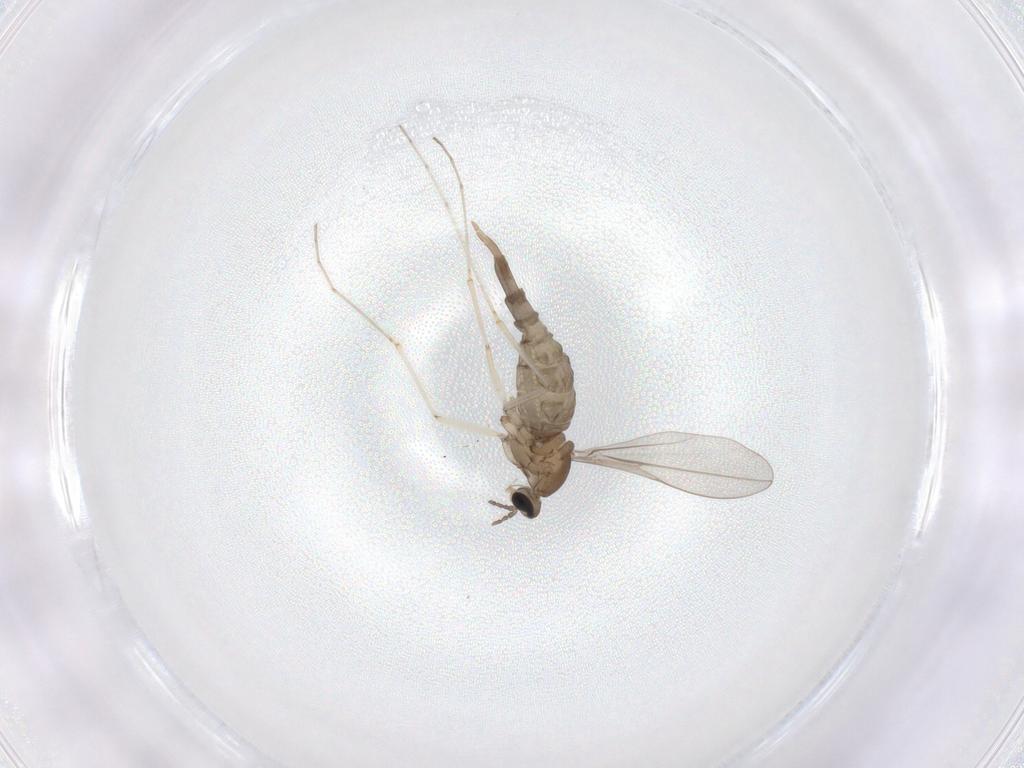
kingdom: Animalia
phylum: Arthropoda
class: Insecta
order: Diptera
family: Cecidomyiidae
